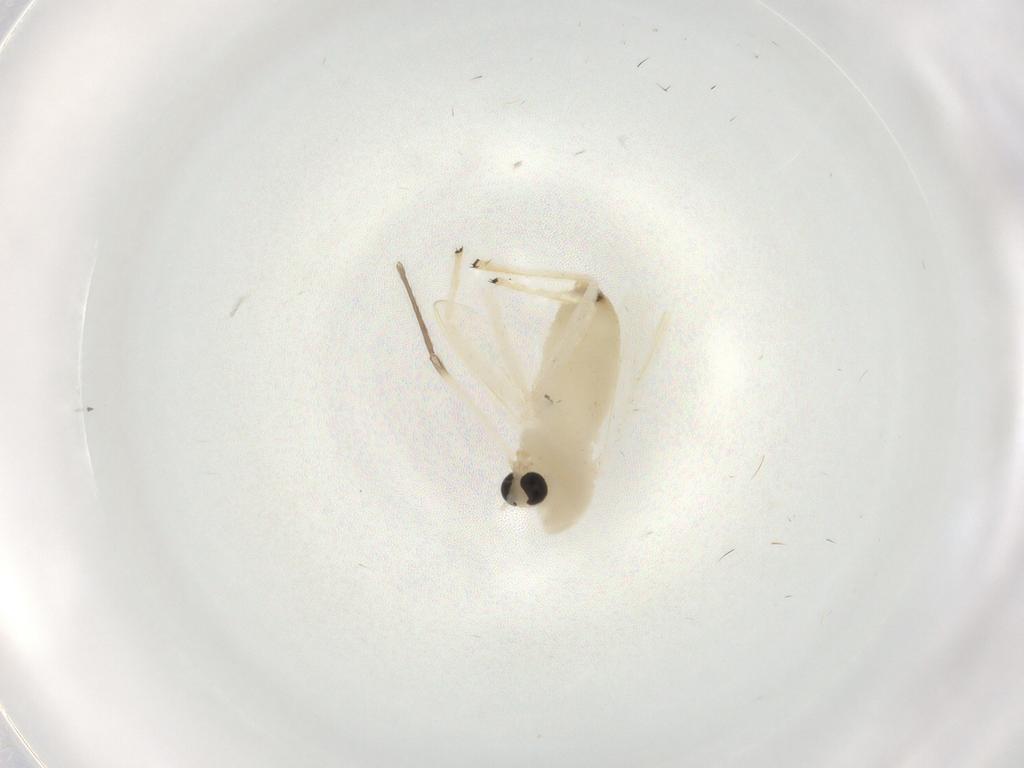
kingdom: Animalia
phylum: Arthropoda
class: Insecta
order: Diptera
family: Chironomidae
